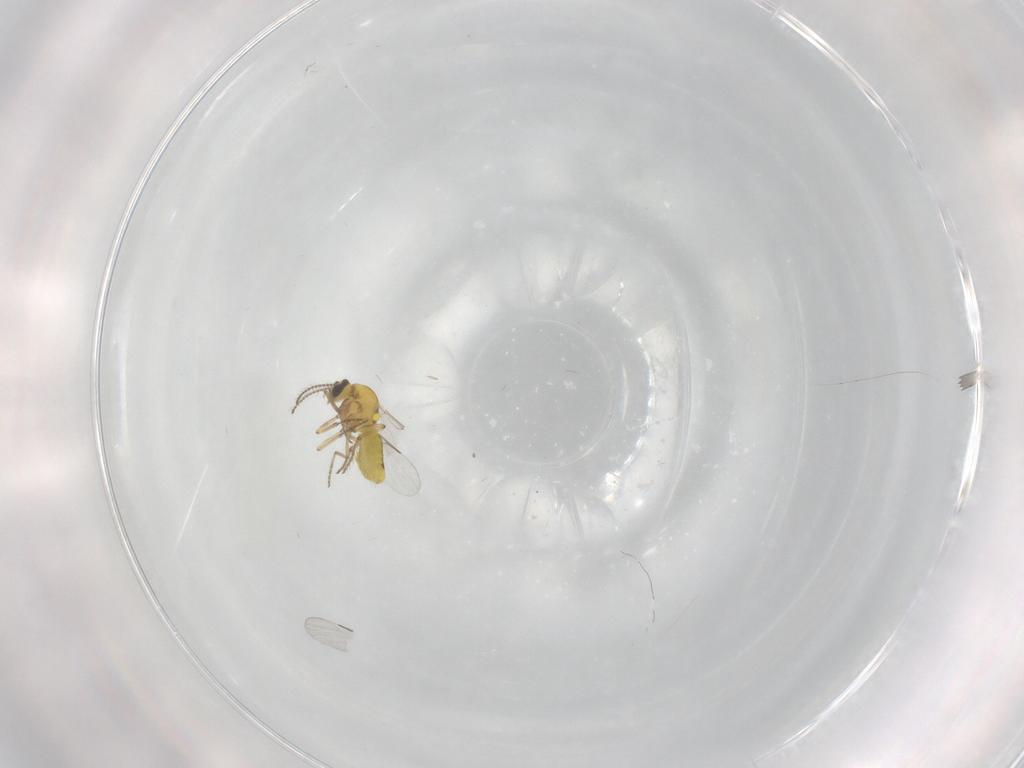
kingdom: Animalia
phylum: Arthropoda
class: Insecta
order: Diptera
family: Ceratopogonidae
